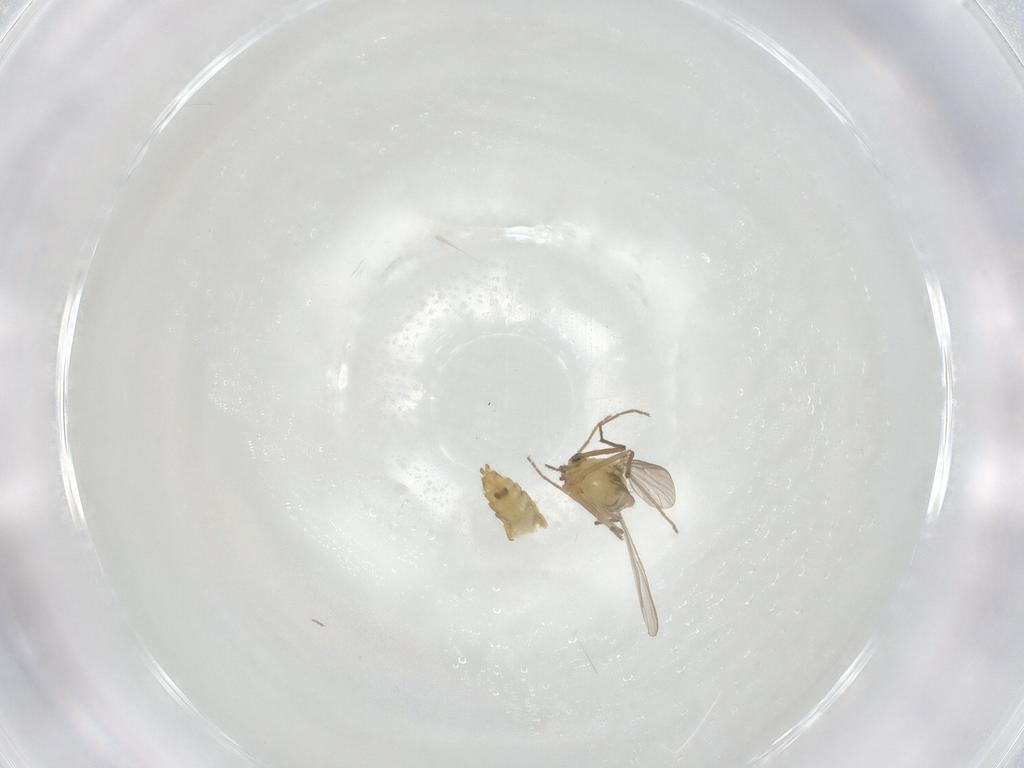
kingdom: Animalia
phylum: Arthropoda
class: Insecta
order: Diptera
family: Chironomidae
